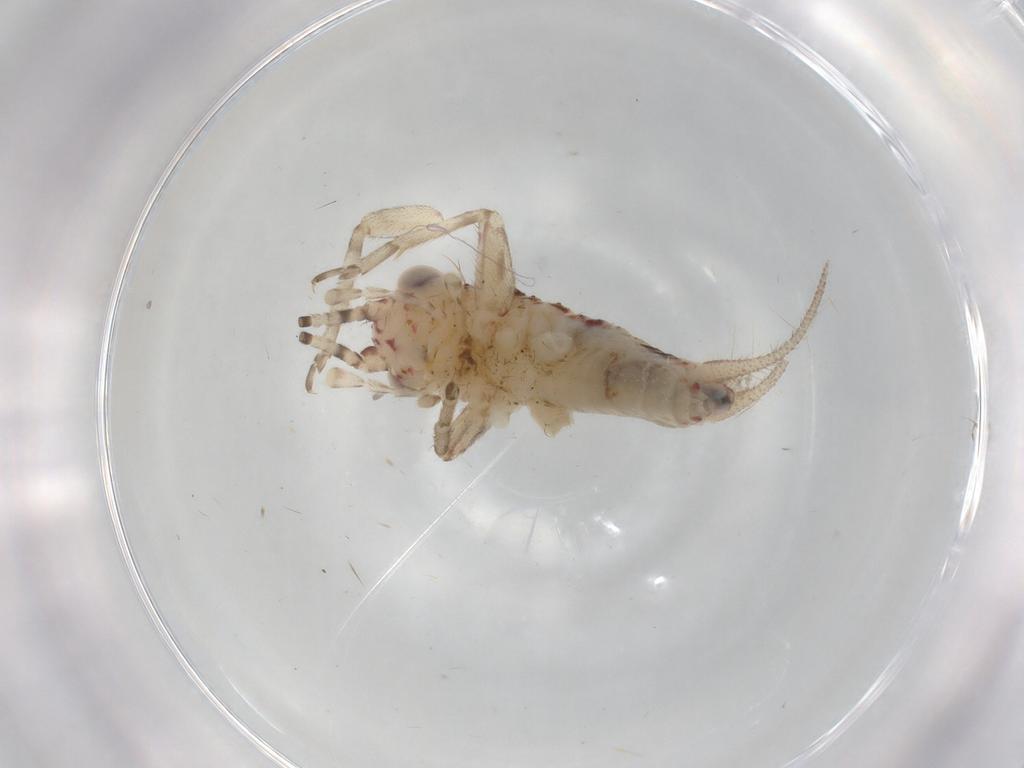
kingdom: Animalia
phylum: Arthropoda
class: Insecta
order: Orthoptera
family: Trigonidiidae
